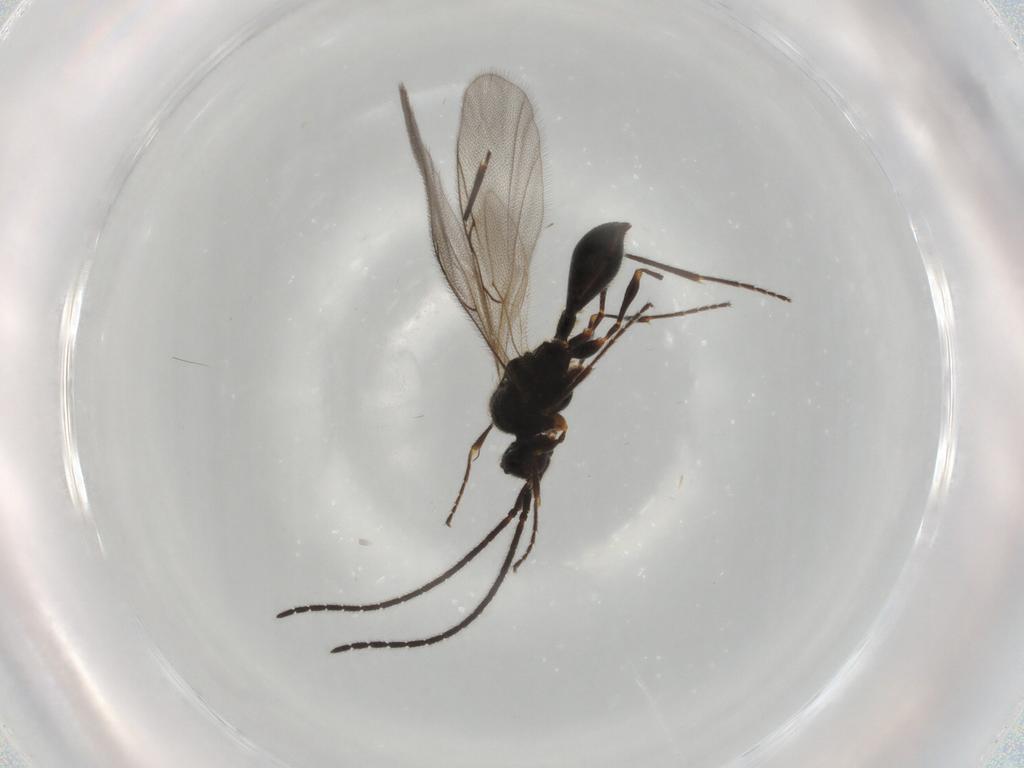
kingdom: Animalia
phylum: Arthropoda
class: Insecta
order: Hymenoptera
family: Diapriidae
